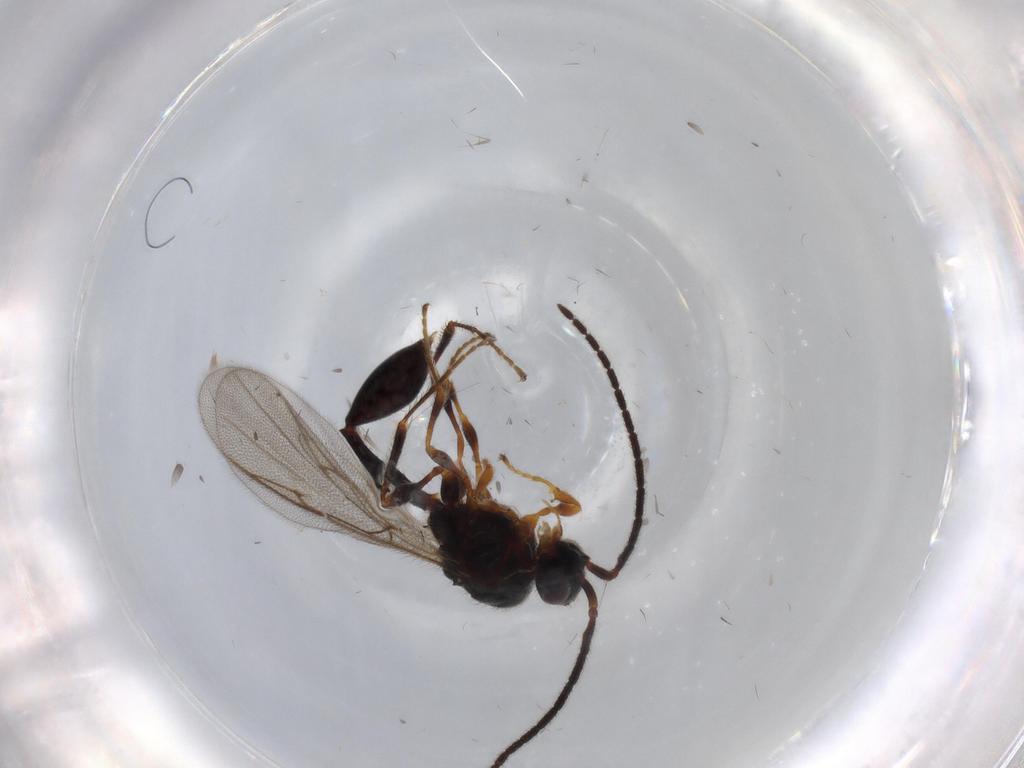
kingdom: Animalia
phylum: Arthropoda
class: Insecta
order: Hymenoptera
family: Diapriidae
